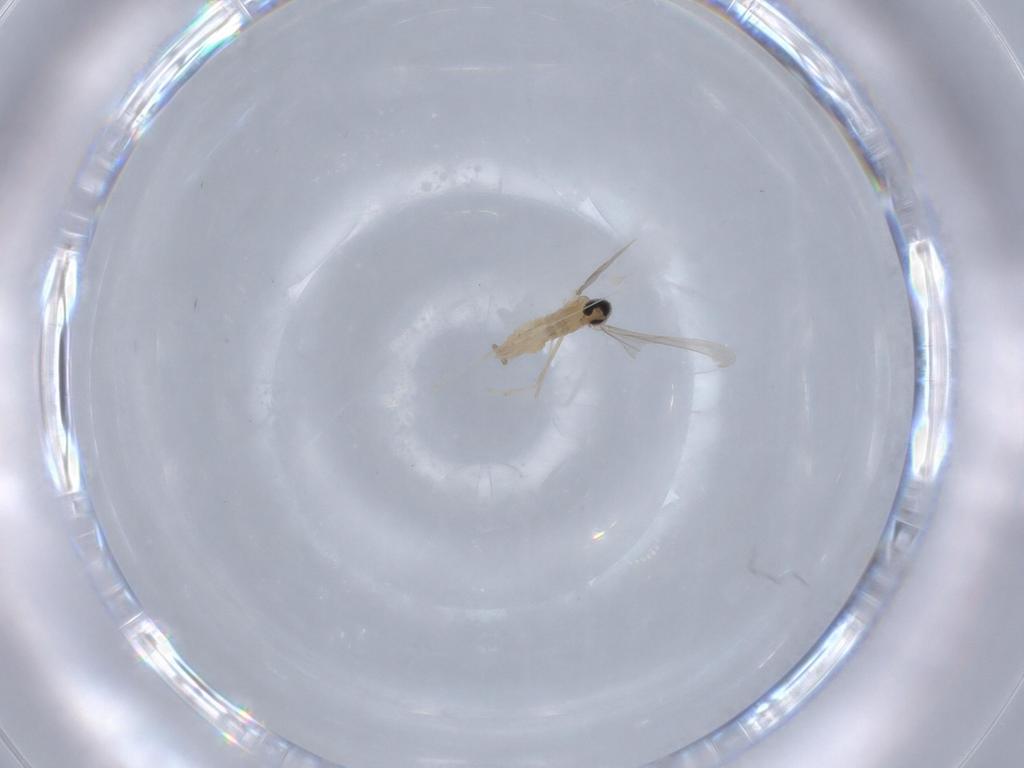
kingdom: Animalia
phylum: Arthropoda
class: Insecta
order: Diptera
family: Cecidomyiidae
